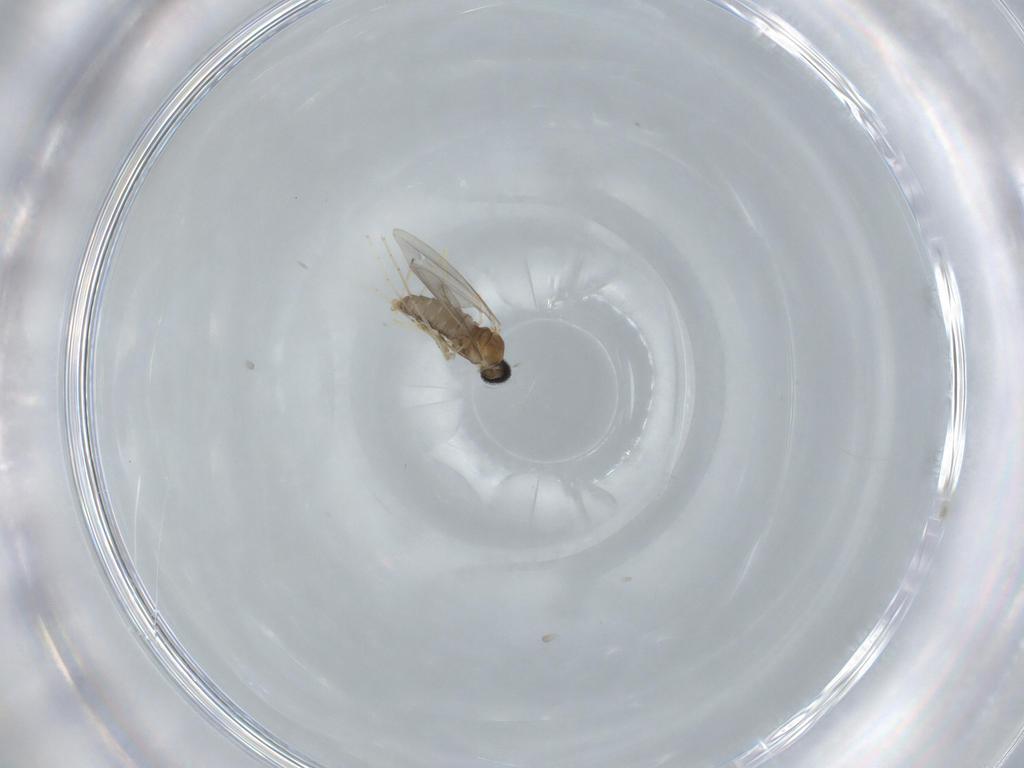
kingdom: Animalia
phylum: Arthropoda
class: Insecta
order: Diptera
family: Cecidomyiidae
